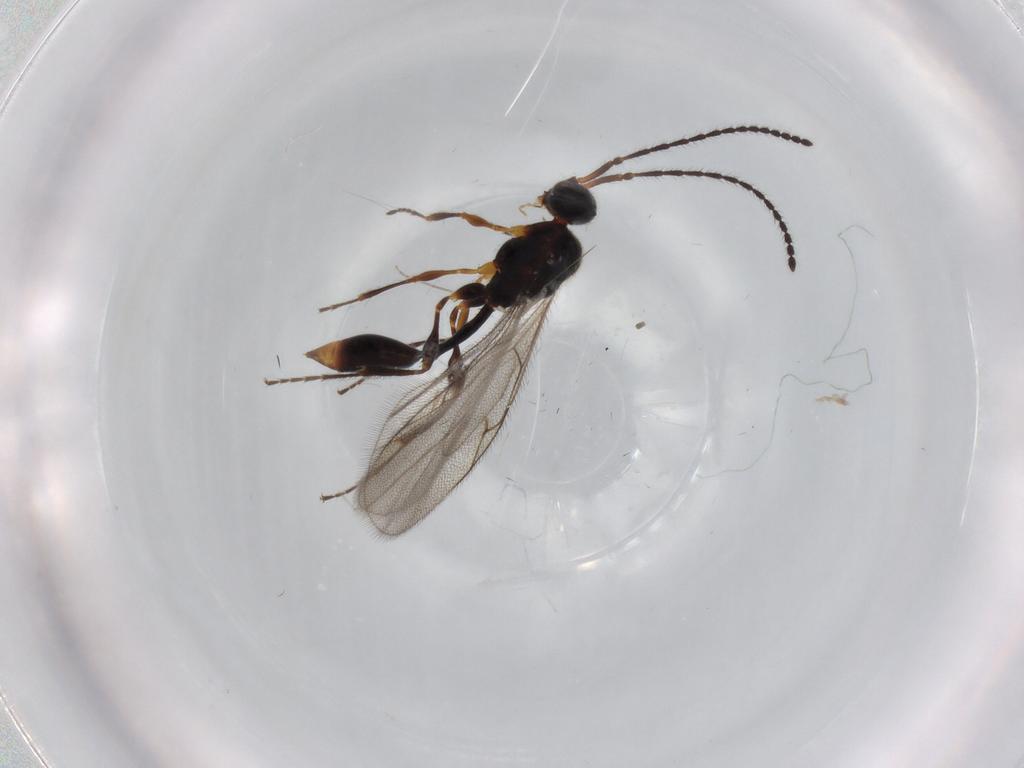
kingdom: Animalia
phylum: Arthropoda
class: Insecta
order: Hymenoptera
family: Diapriidae
